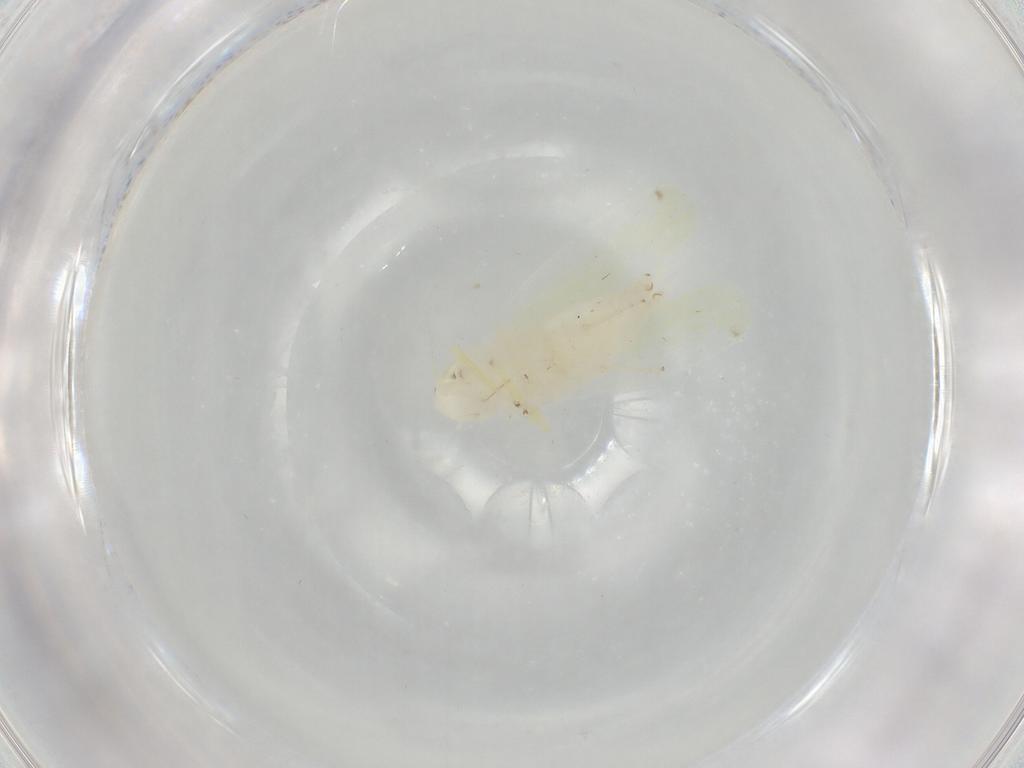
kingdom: Animalia
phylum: Arthropoda
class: Insecta
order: Hemiptera
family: Cicadellidae
